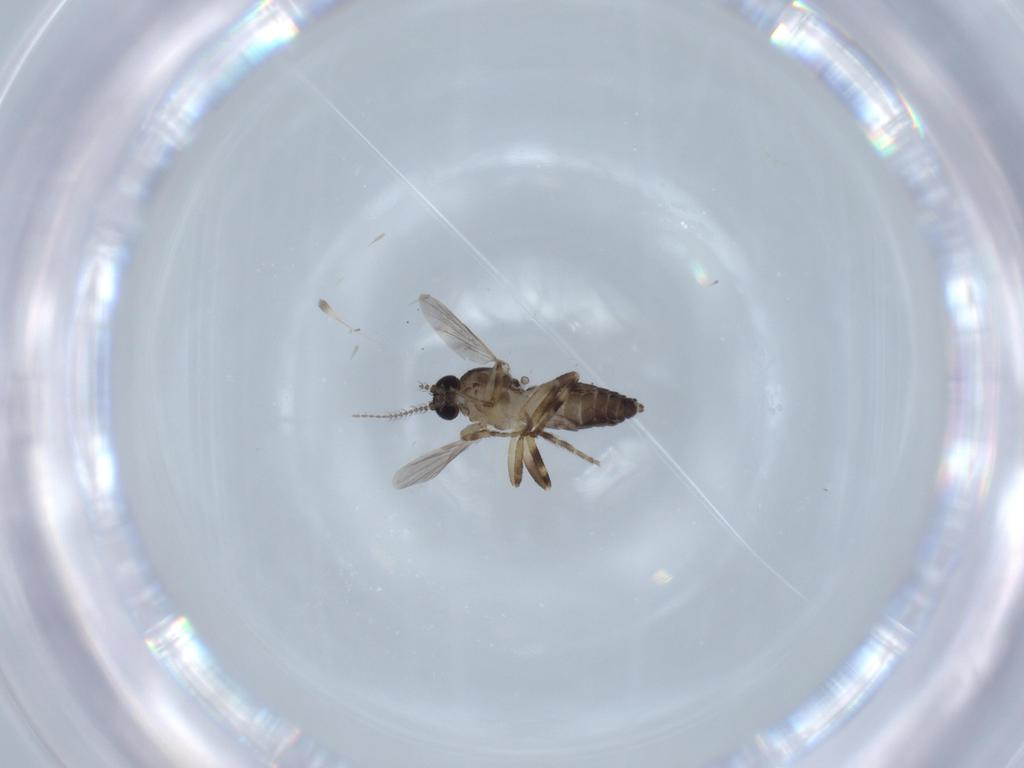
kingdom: Animalia
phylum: Arthropoda
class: Insecta
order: Diptera
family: Ceratopogonidae
